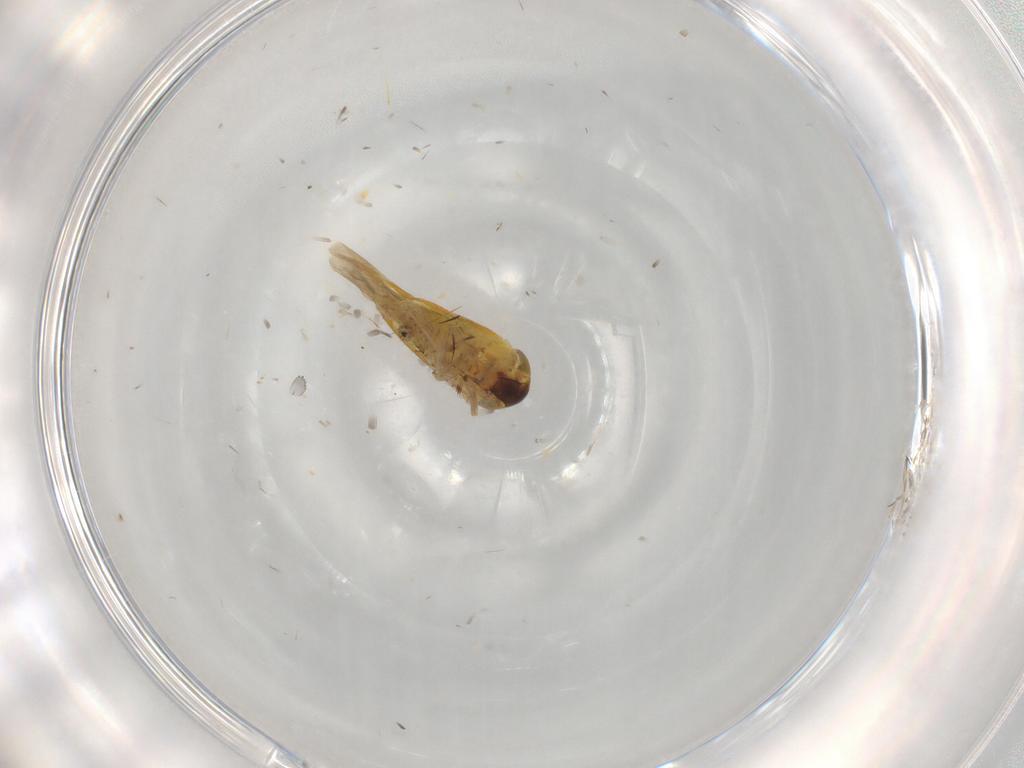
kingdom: Animalia
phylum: Arthropoda
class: Insecta
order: Hemiptera
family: Cicadellidae
